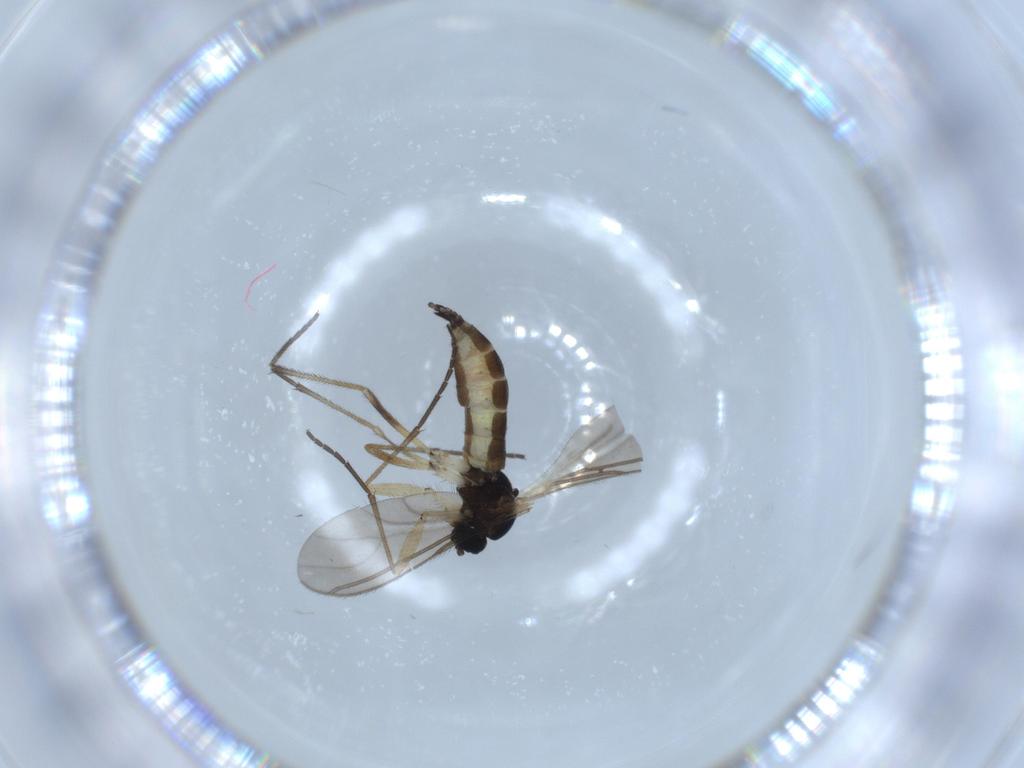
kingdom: Animalia
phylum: Arthropoda
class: Insecta
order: Diptera
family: Sciaridae
